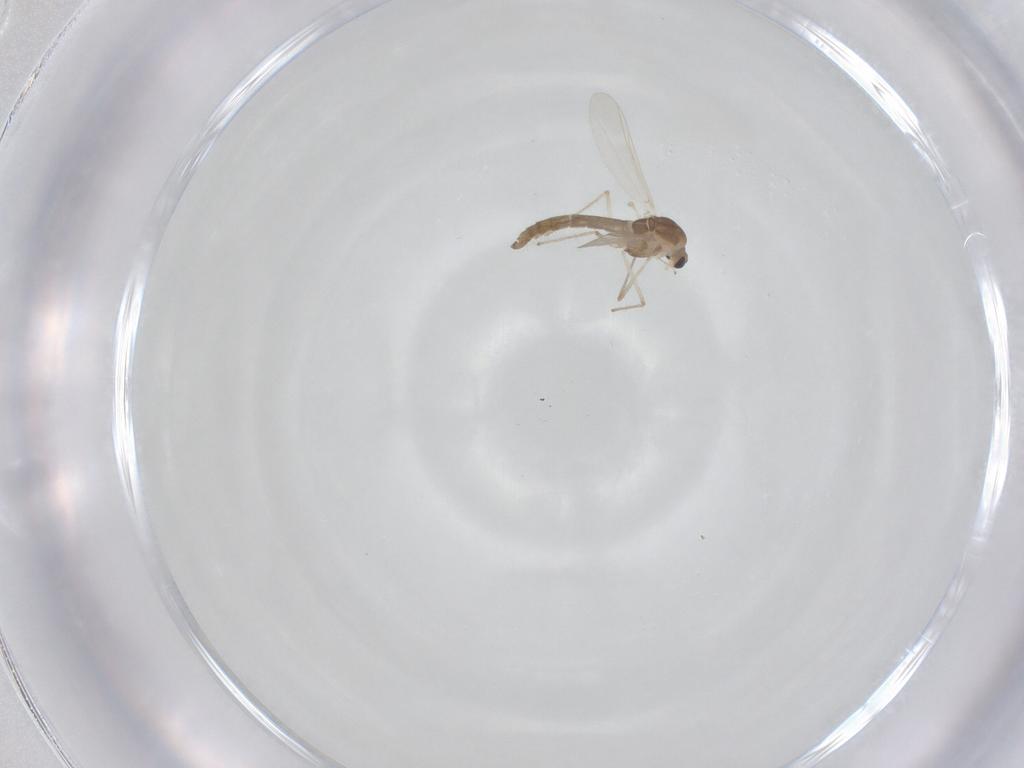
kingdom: Animalia
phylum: Arthropoda
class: Insecta
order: Diptera
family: Chironomidae
